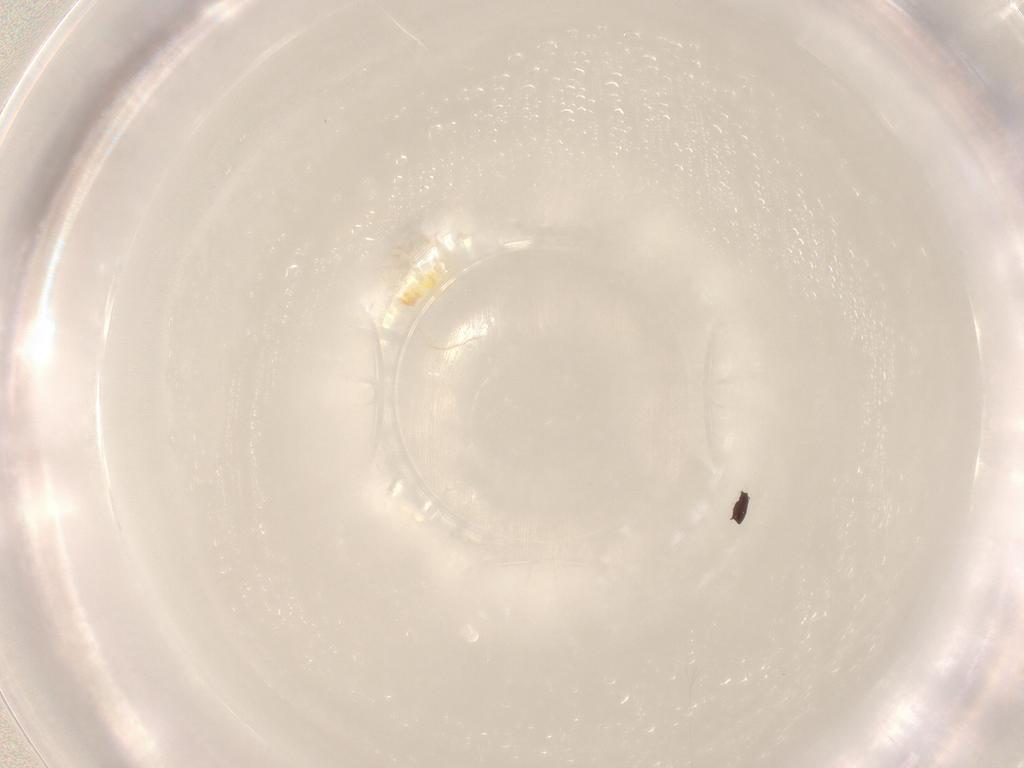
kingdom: Animalia
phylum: Arthropoda
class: Arachnida
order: Trombidiformes
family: Erythraeidae
